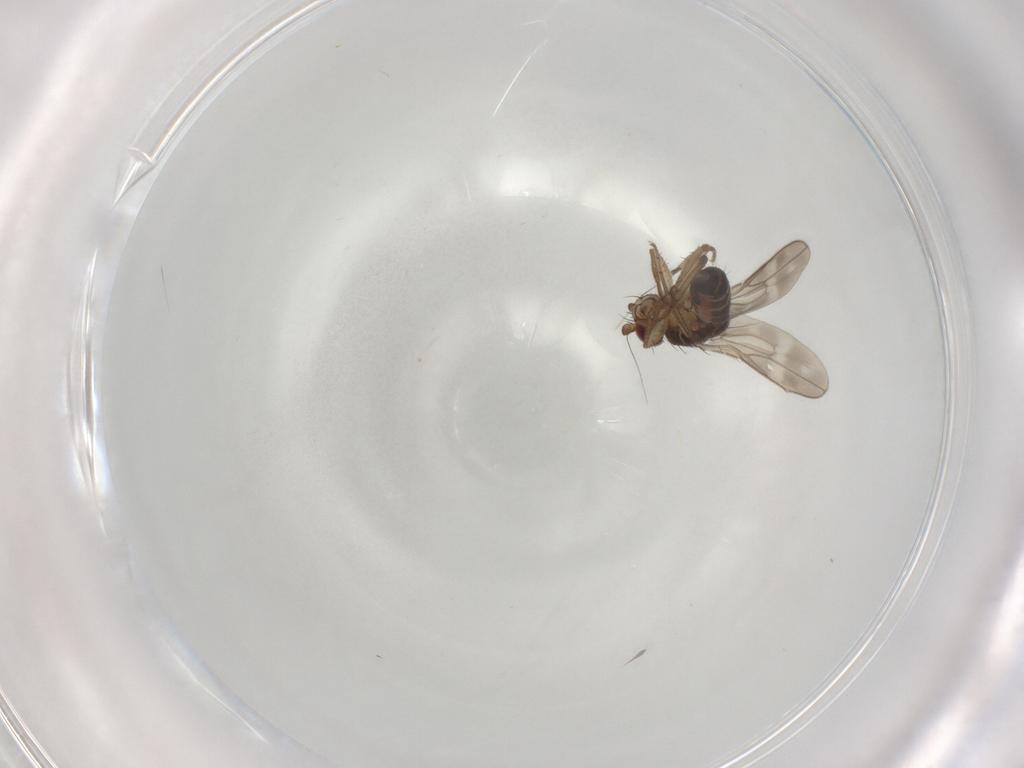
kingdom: Animalia
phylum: Arthropoda
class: Insecta
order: Diptera
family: Sphaeroceridae
